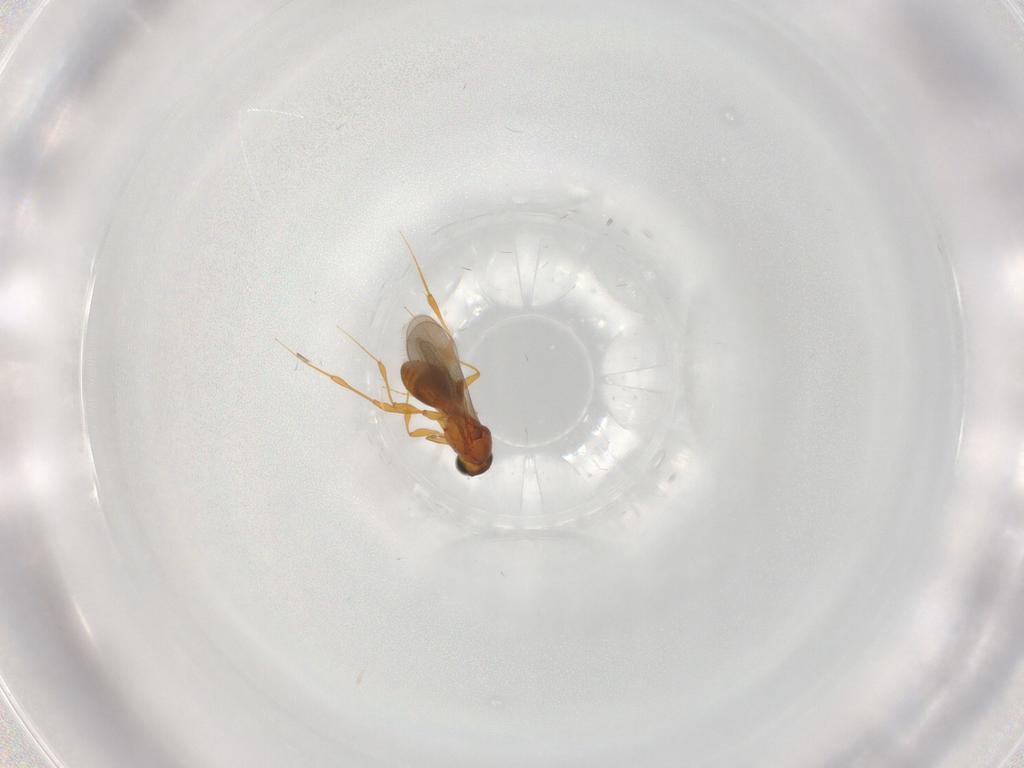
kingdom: Animalia
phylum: Arthropoda
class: Insecta
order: Hymenoptera
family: Platygastridae
